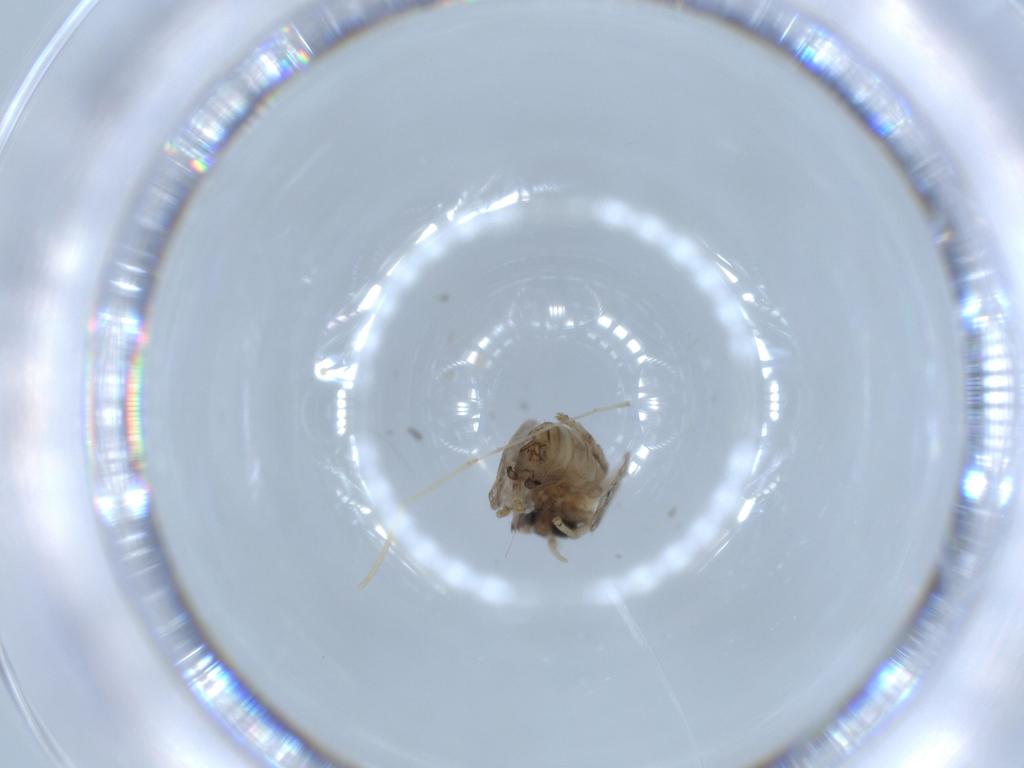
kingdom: Animalia
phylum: Arthropoda
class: Insecta
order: Diptera
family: Cecidomyiidae
